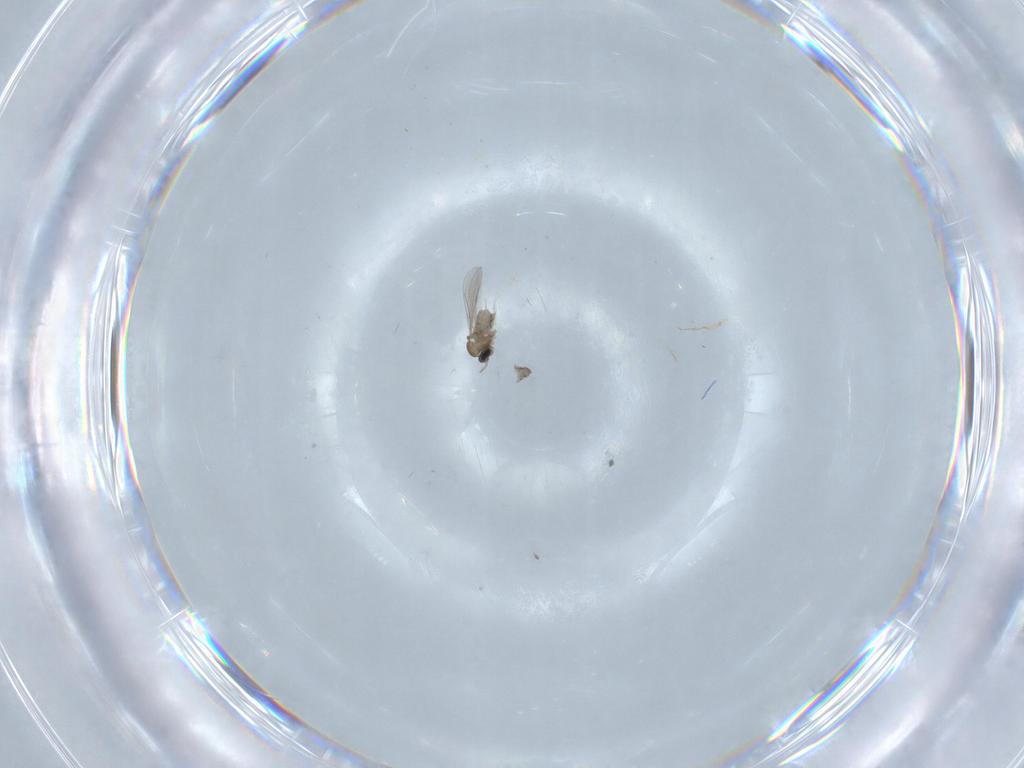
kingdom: Animalia
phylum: Arthropoda
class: Insecta
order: Diptera
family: Cecidomyiidae
